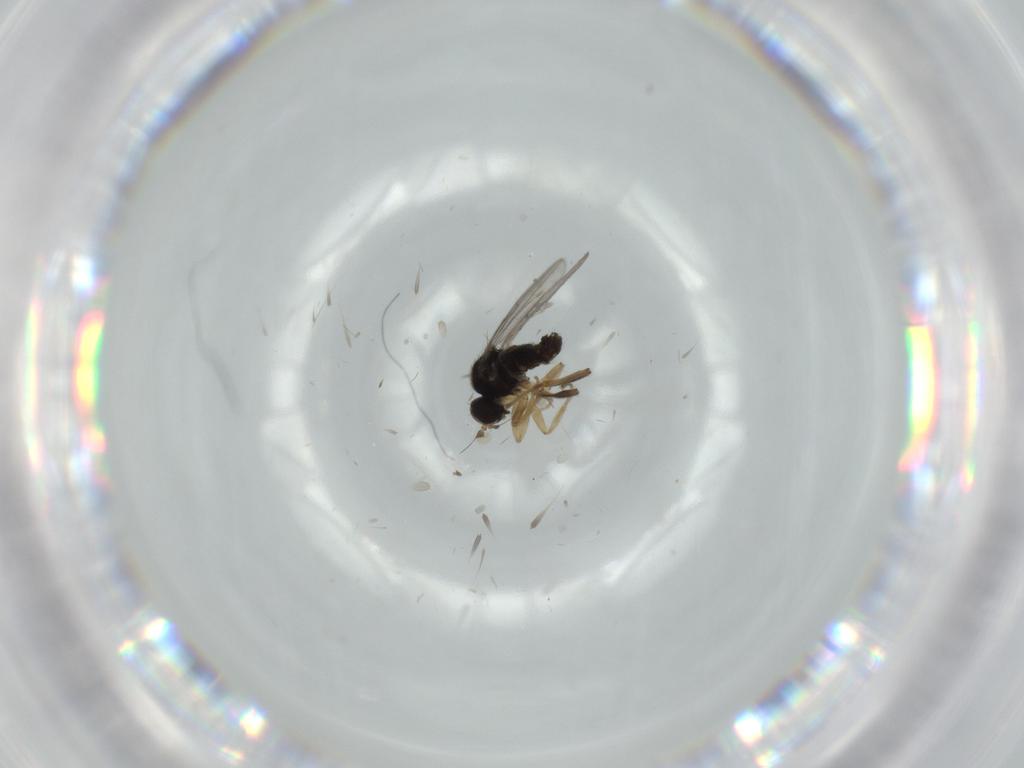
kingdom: Animalia
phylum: Arthropoda
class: Insecta
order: Diptera
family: Hybotidae
